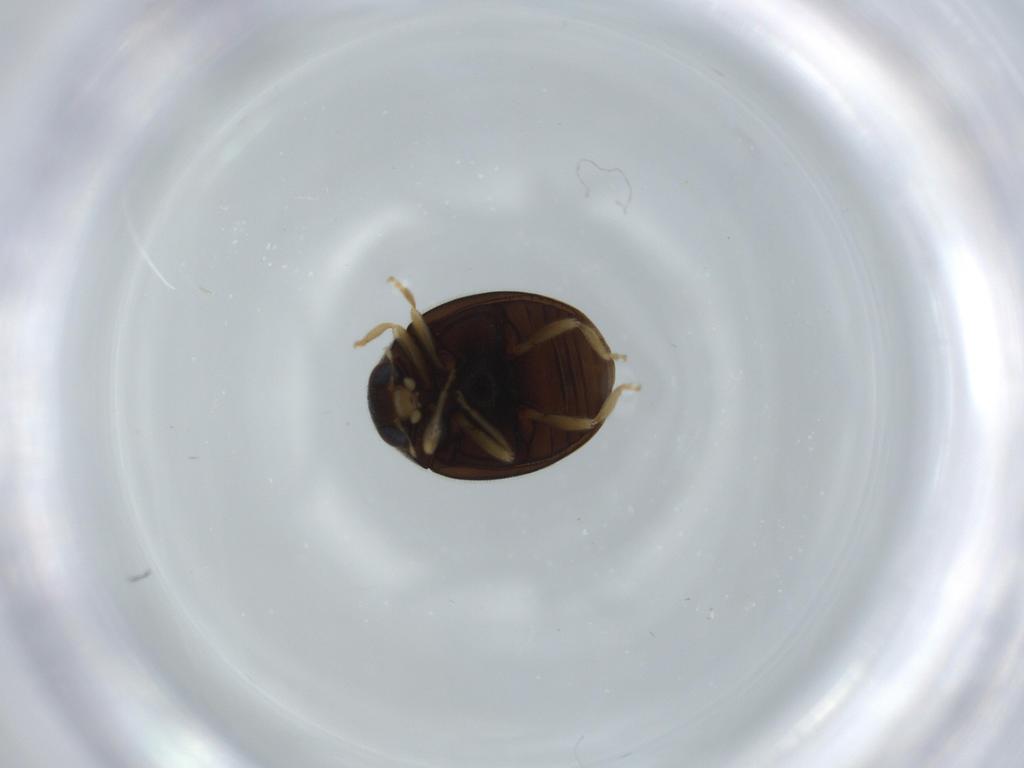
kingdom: Animalia
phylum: Arthropoda
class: Insecta
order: Coleoptera
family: Coccinellidae
